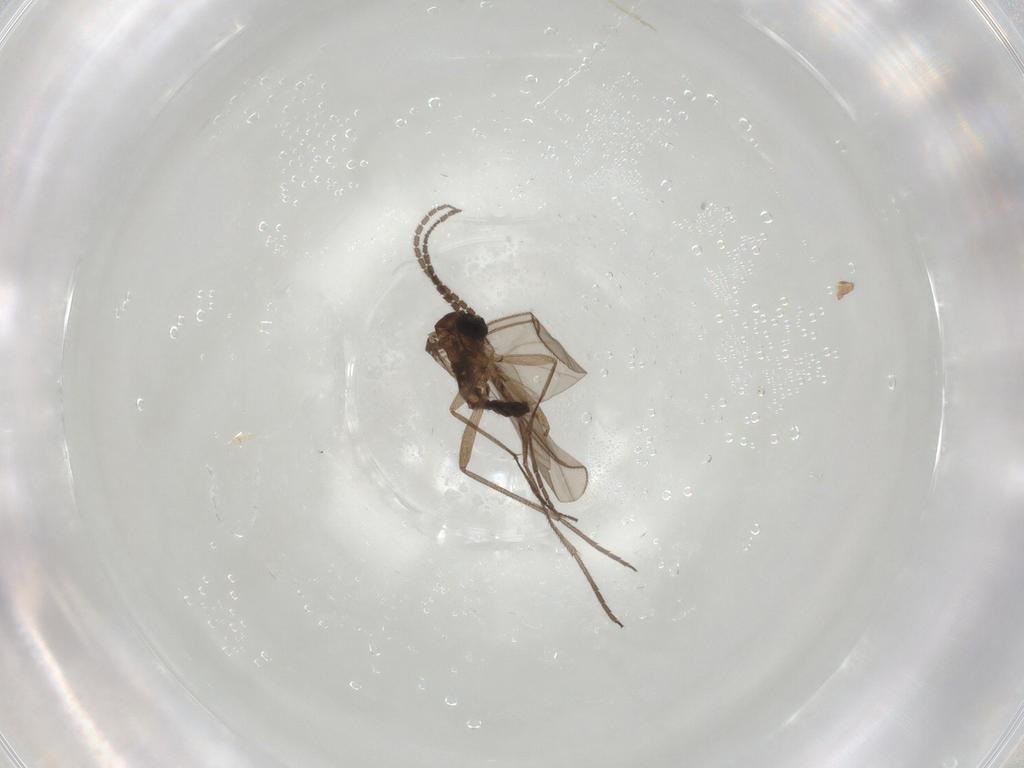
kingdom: Animalia
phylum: Arthropoda
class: Insecta
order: Diptera
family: Sciaridae
